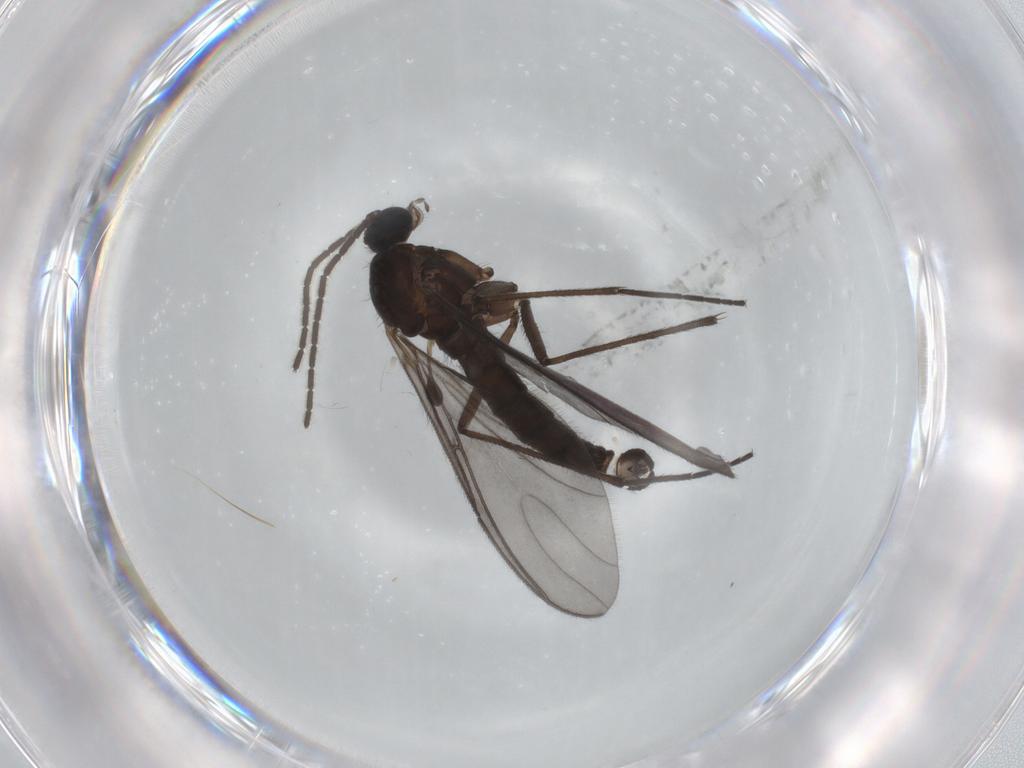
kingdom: Animalia
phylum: Arthropoda
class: Insecta
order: Diptera
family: Sciaridae
